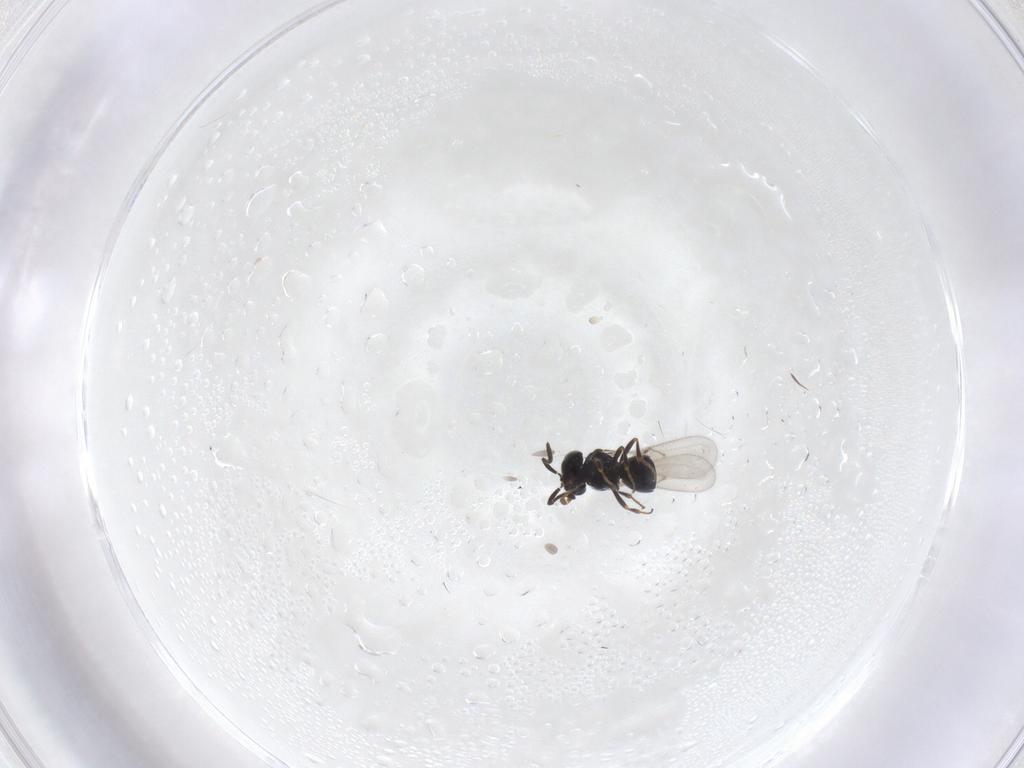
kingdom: Animalia
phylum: Arthropoda
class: Insecta
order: Hymenoptera
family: Scelionidae
